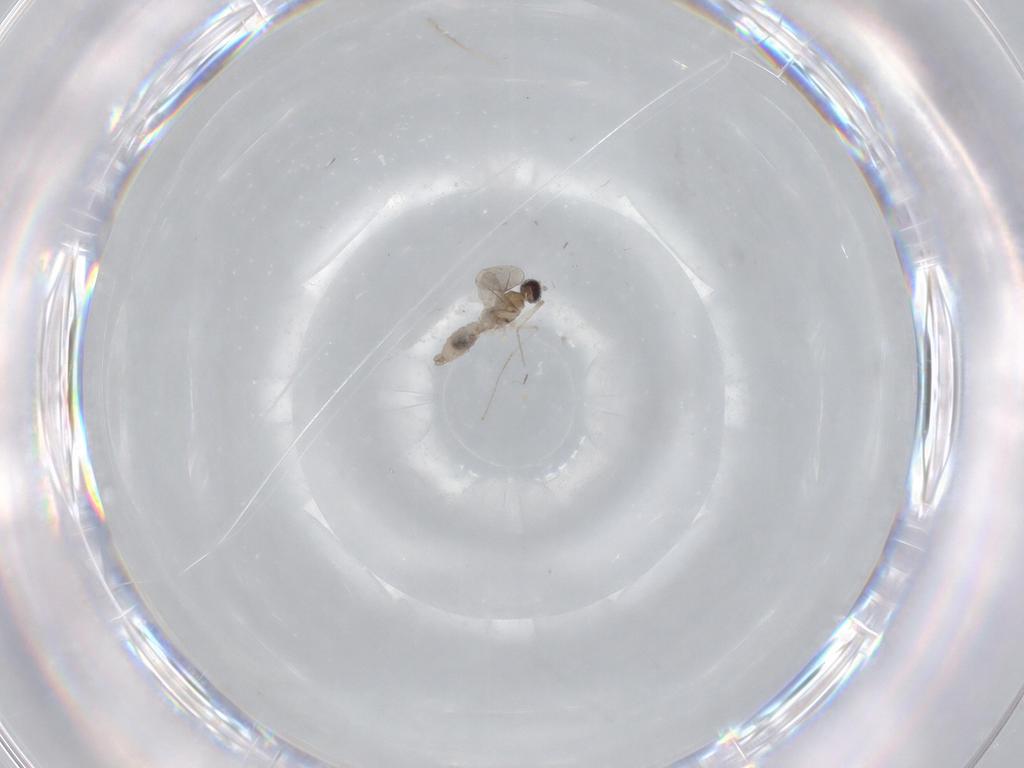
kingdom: Animalia
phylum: Arthropoda
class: Insecta
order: Diptera
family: Cecidomyiidae
